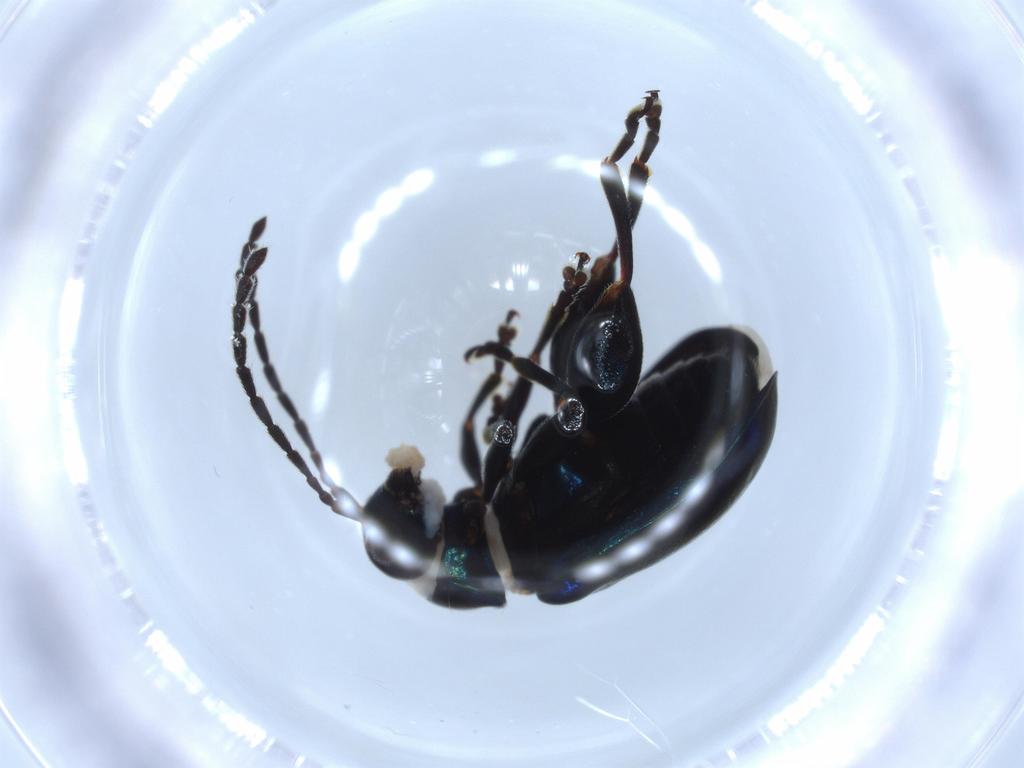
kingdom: Animalia
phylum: Arthropoda
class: Insecta
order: Coleoptera
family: Chrysomelidae
